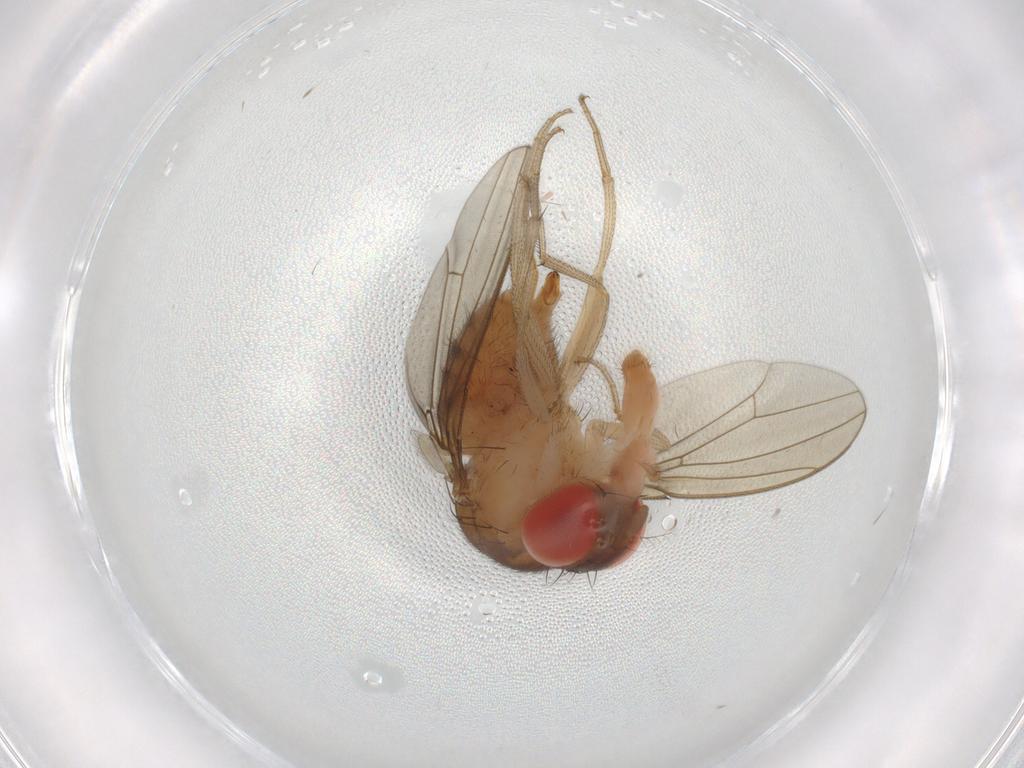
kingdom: Animalia
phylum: Arthropoda
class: Insecta
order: Diptera
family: Drosophilidae
